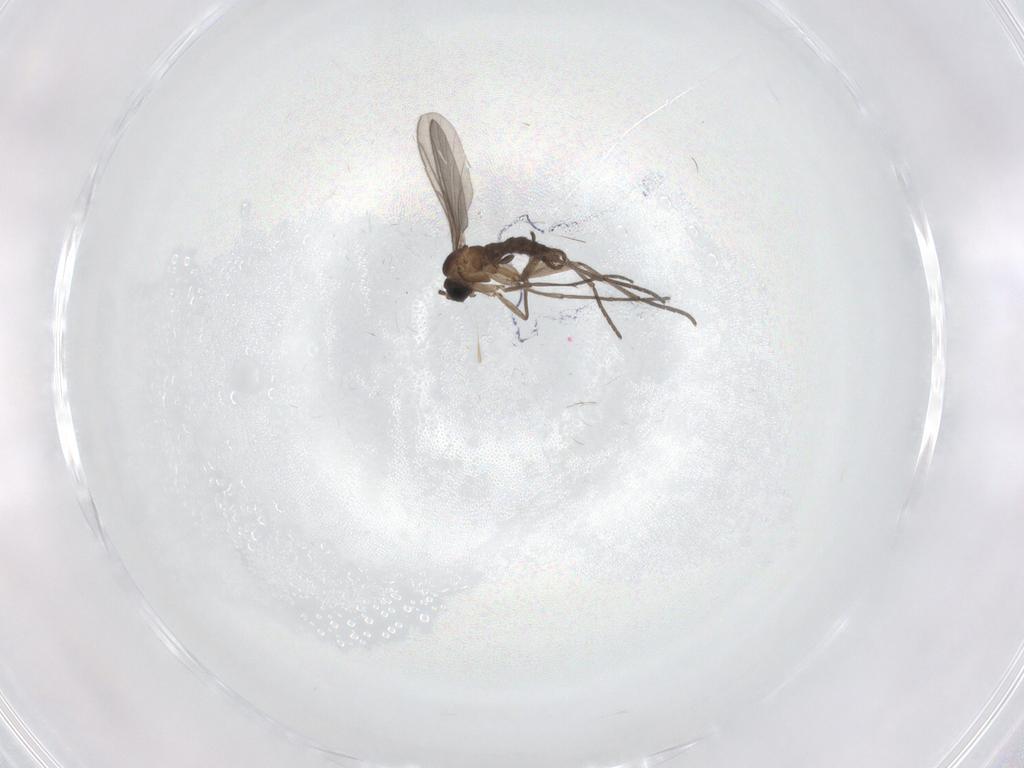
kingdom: Animalia
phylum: Arthropoda
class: Insecta
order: Diptera
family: Sciaridae
